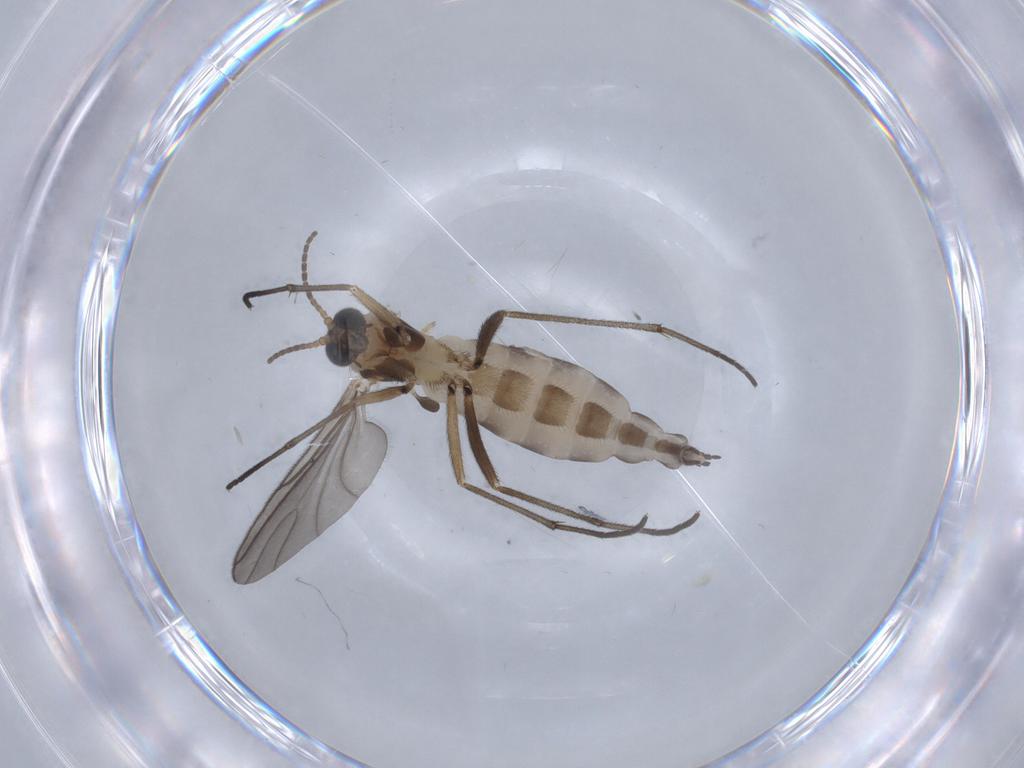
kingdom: Animalia
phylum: Arthropoda
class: Insecta
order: Diptera
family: Sciaridae
